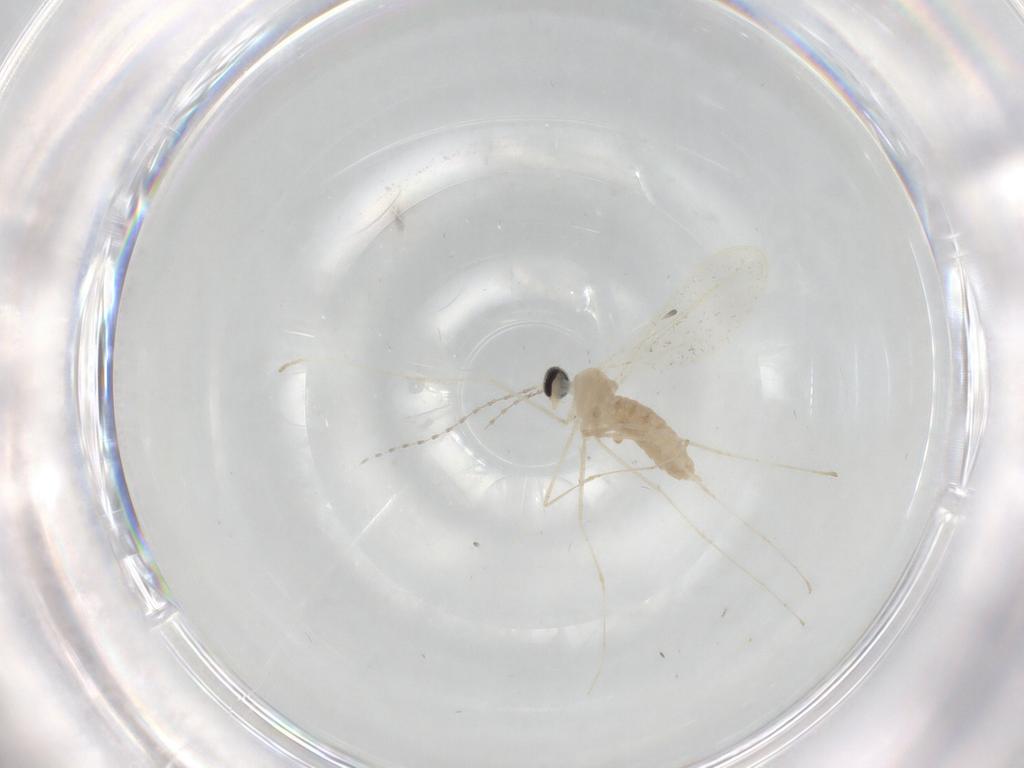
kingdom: Animalia
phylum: Arthropoda
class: Insecta
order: Diptera
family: Cecidomyiidae
